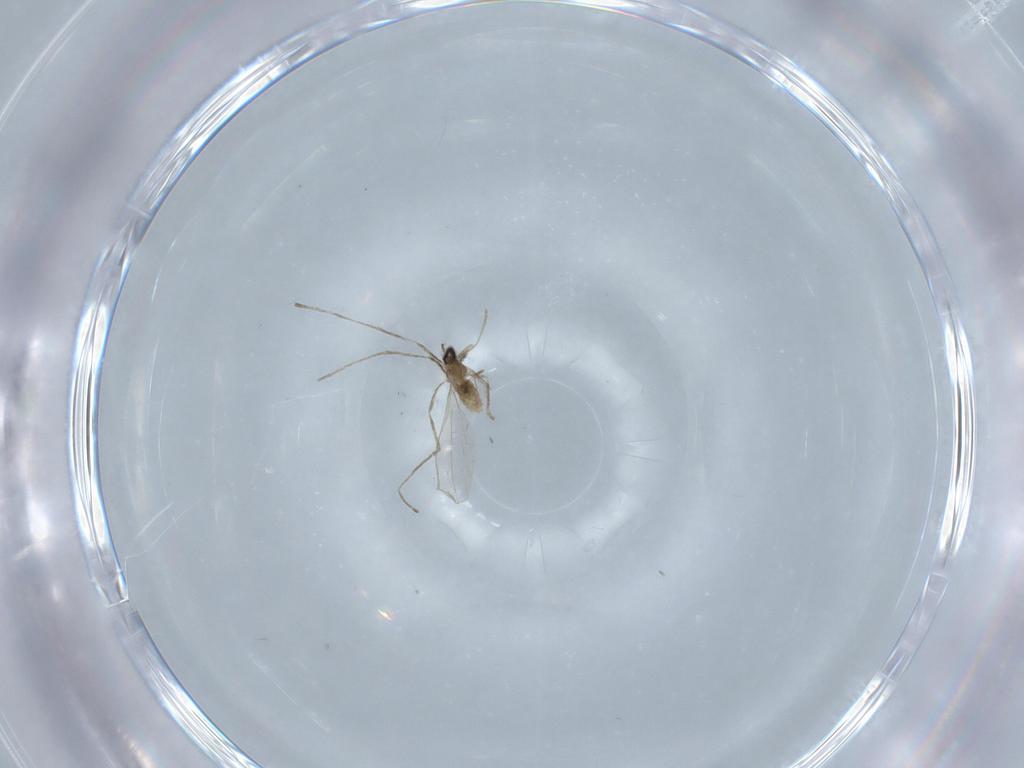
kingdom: Animalia
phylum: Arthropoda
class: Insecta
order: Diptera
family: Cecidomyiidae
